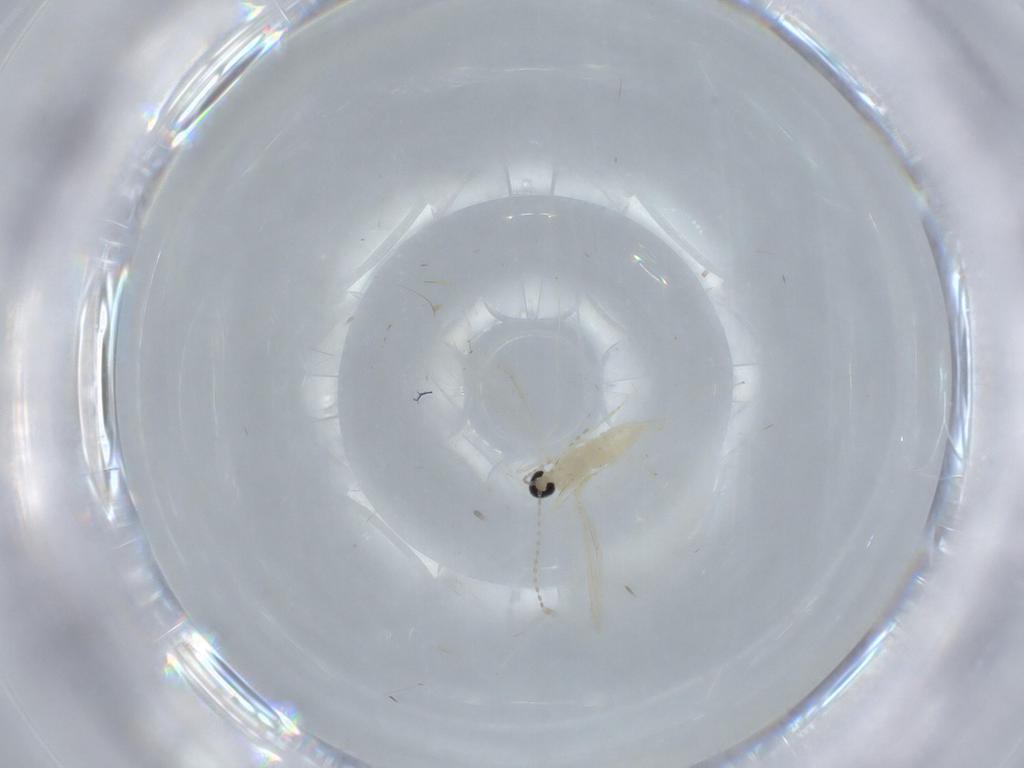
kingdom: Animalia
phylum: Arthropoda
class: Insecta
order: Diptera
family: Cecidomyiidae
